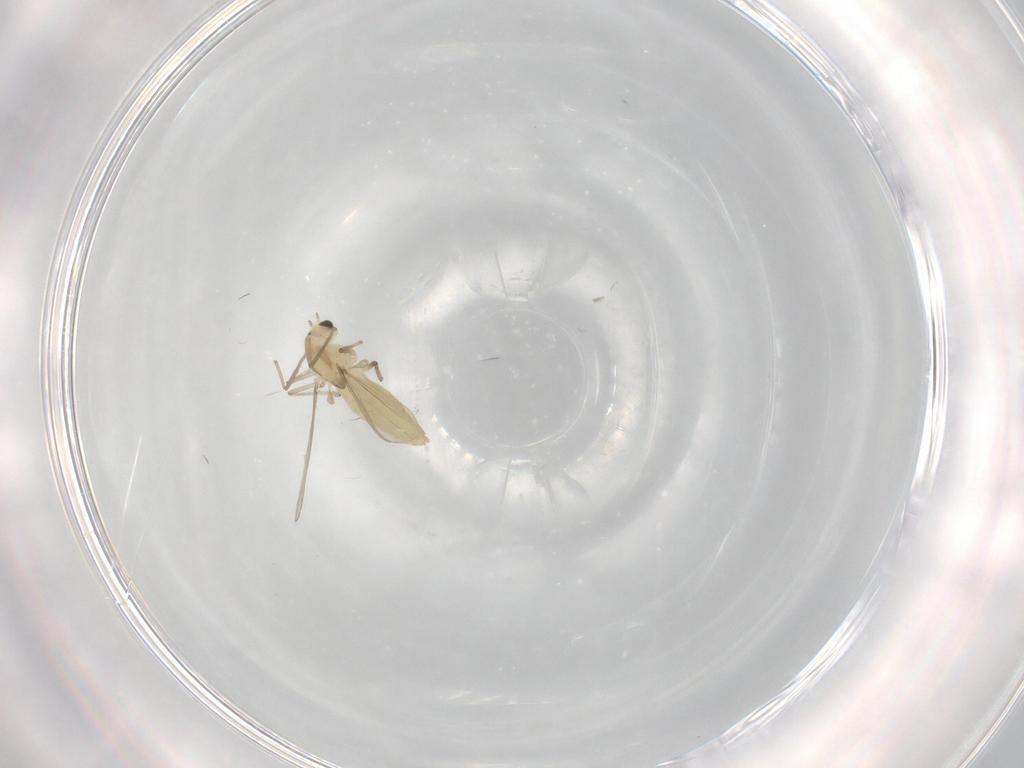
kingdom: Animalia
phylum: Arthropoda
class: Insecta
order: Diptera
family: Chironomidae
